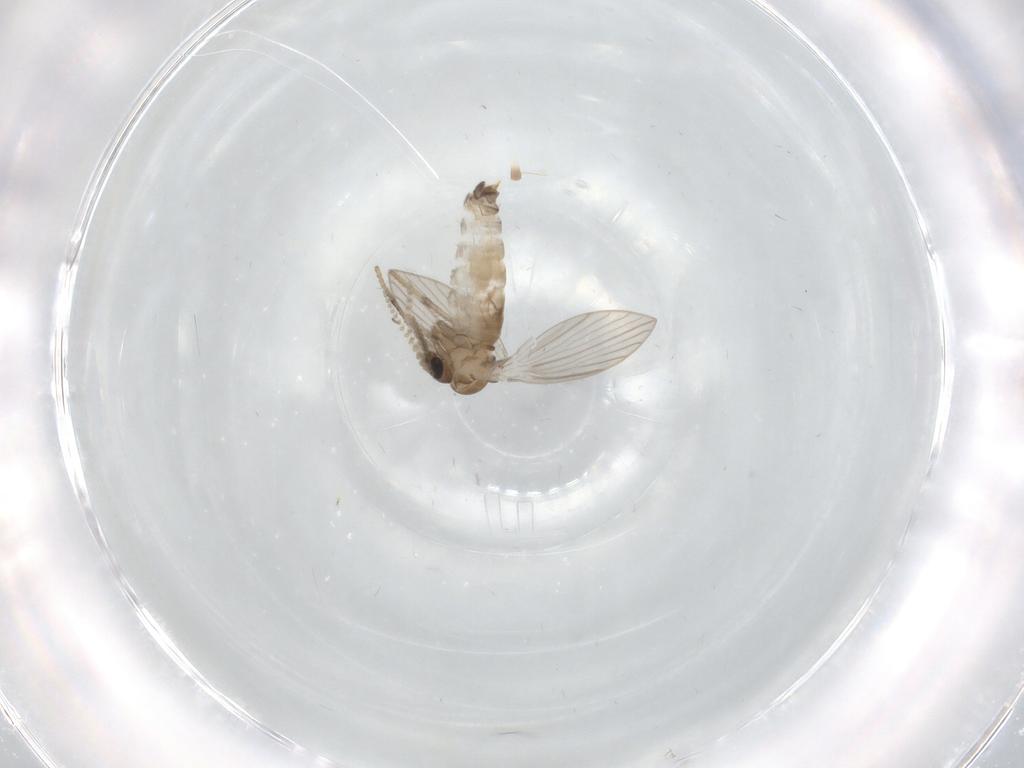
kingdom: Animalia
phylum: Arthropoda
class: Insecta
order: Diptera
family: Psychodidae
